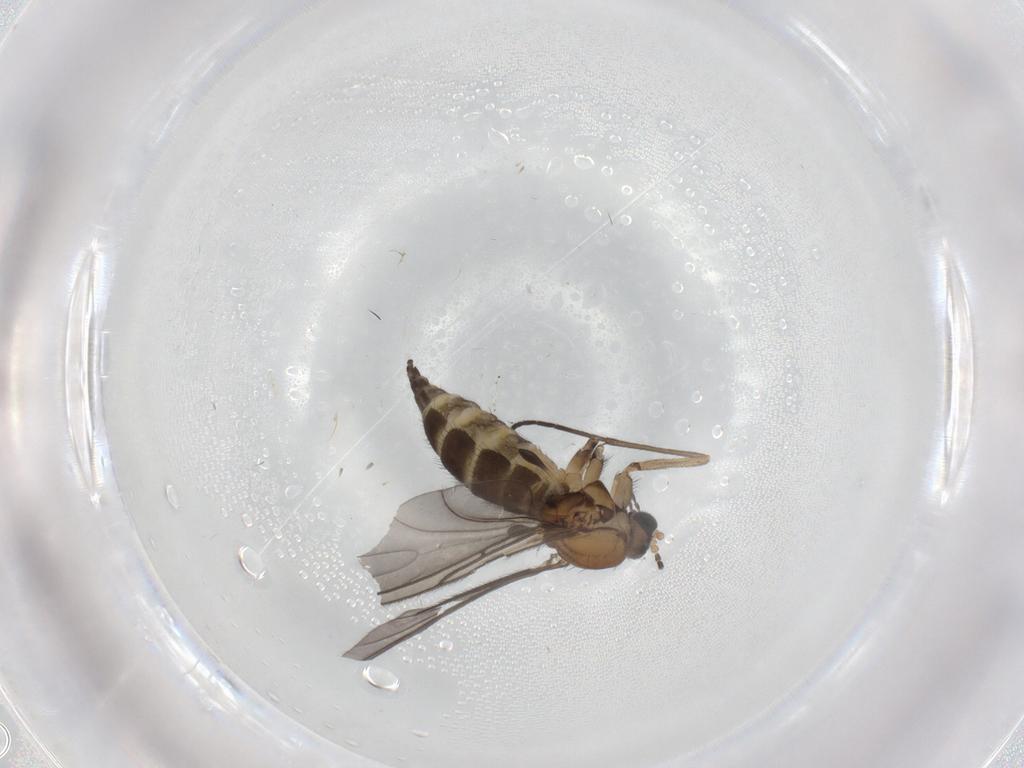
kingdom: Animalia
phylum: Arthropoda
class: Insecta
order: Diptera
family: Sciaridae
